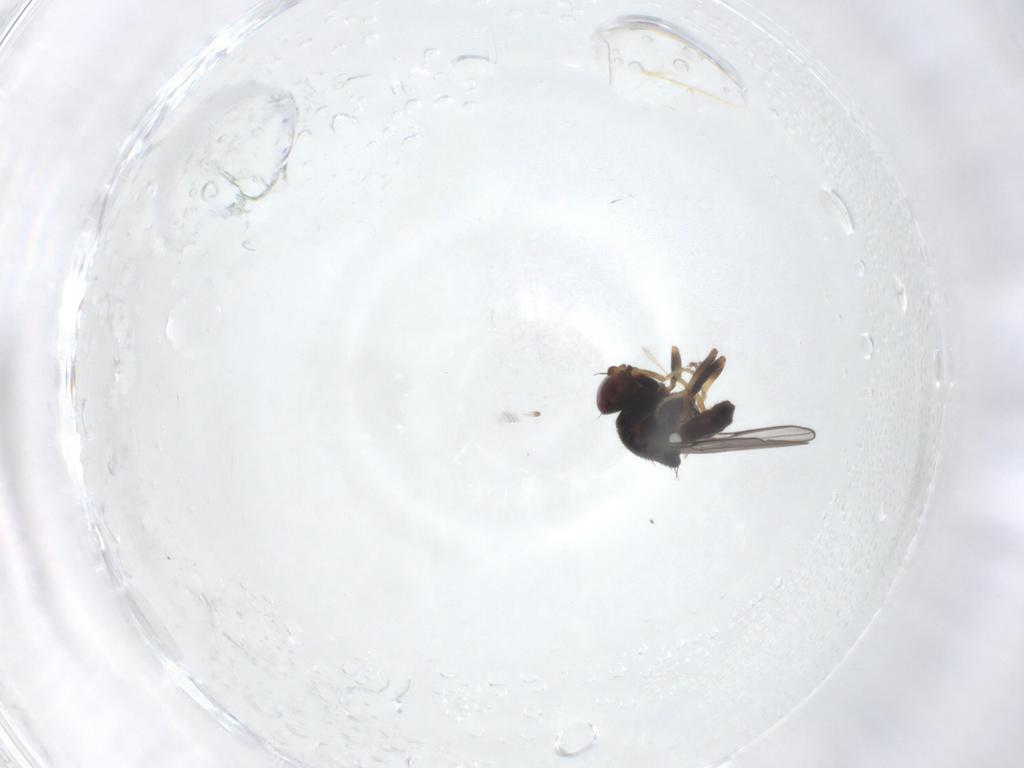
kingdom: Animalia
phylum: Arthropoda
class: Insecta
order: Diptera
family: Chloropidae
